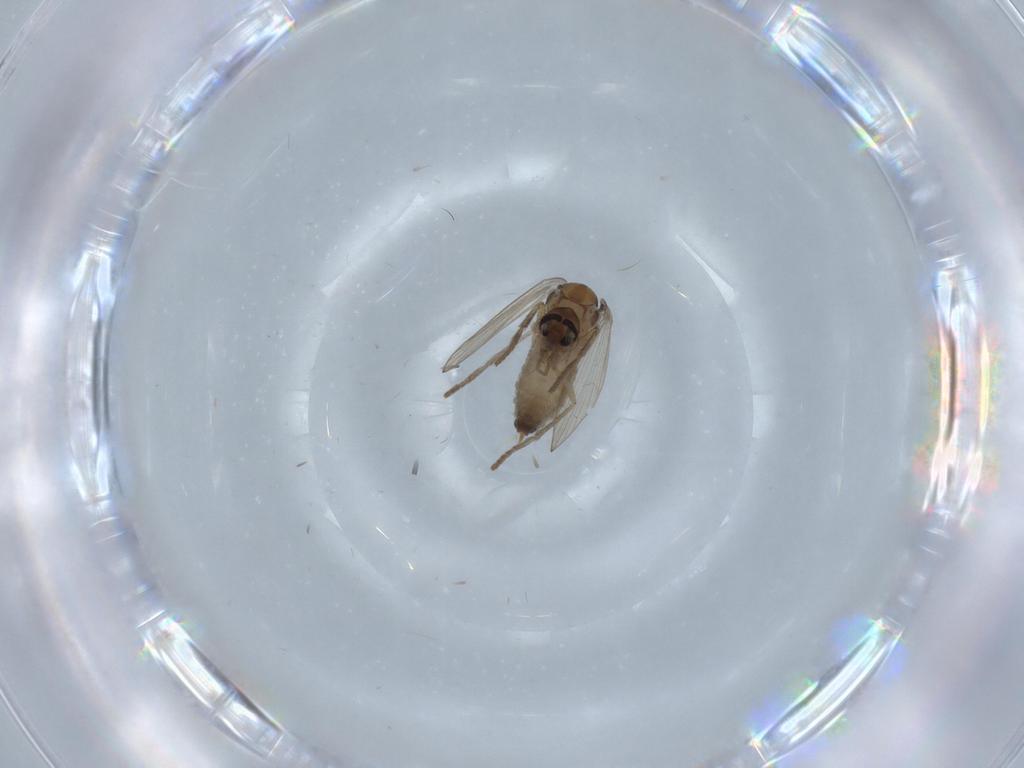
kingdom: Animalia
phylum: Arthropoda
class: Insecta
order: Diptera
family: Psychodidae
